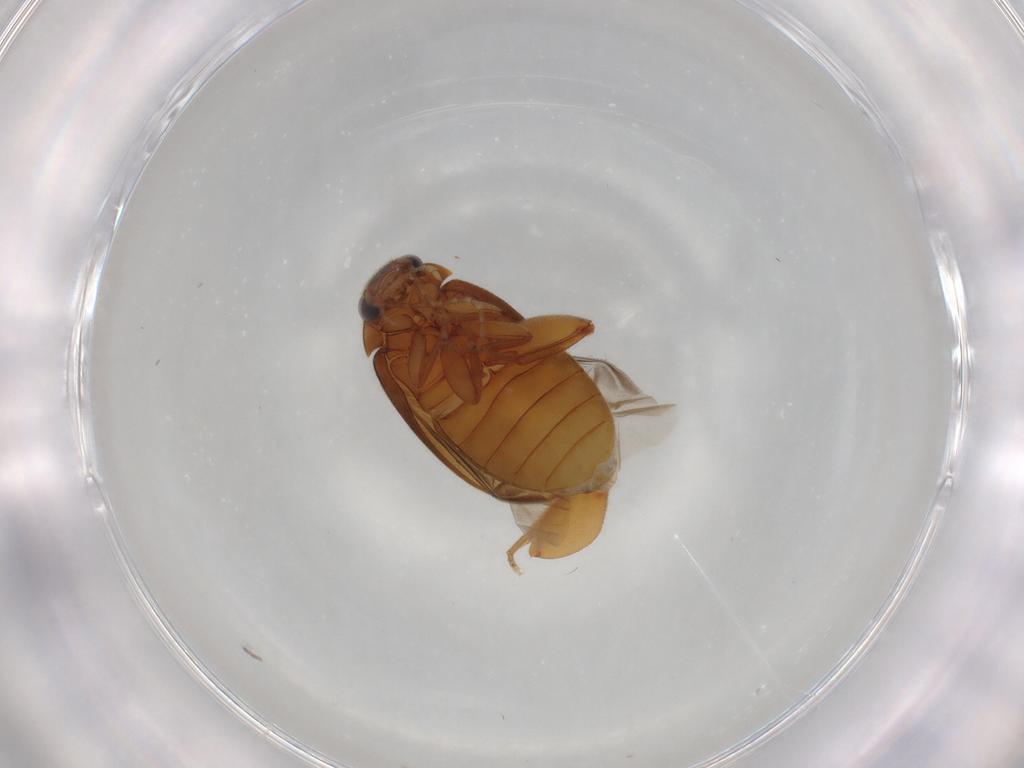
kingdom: Animalia
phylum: Arthropoda
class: Insecta
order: Coleoptera
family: Scirtidae
